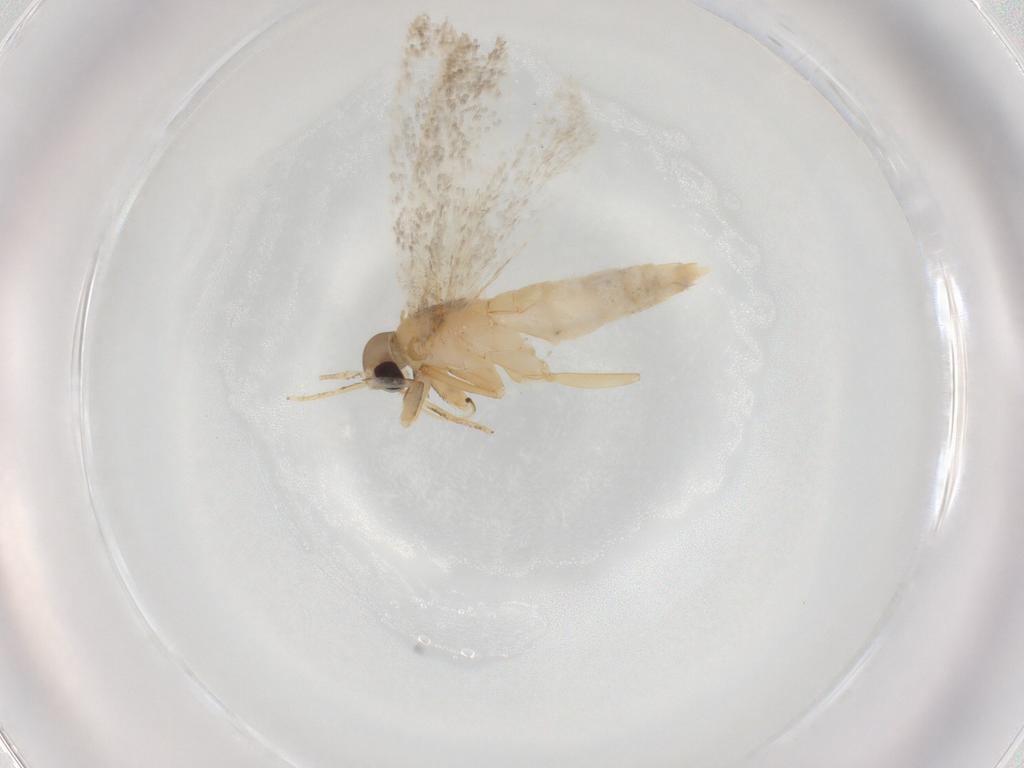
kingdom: Animalia
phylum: Arthropoda
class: Insecta
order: Lepidoptera
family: Autostichidae
